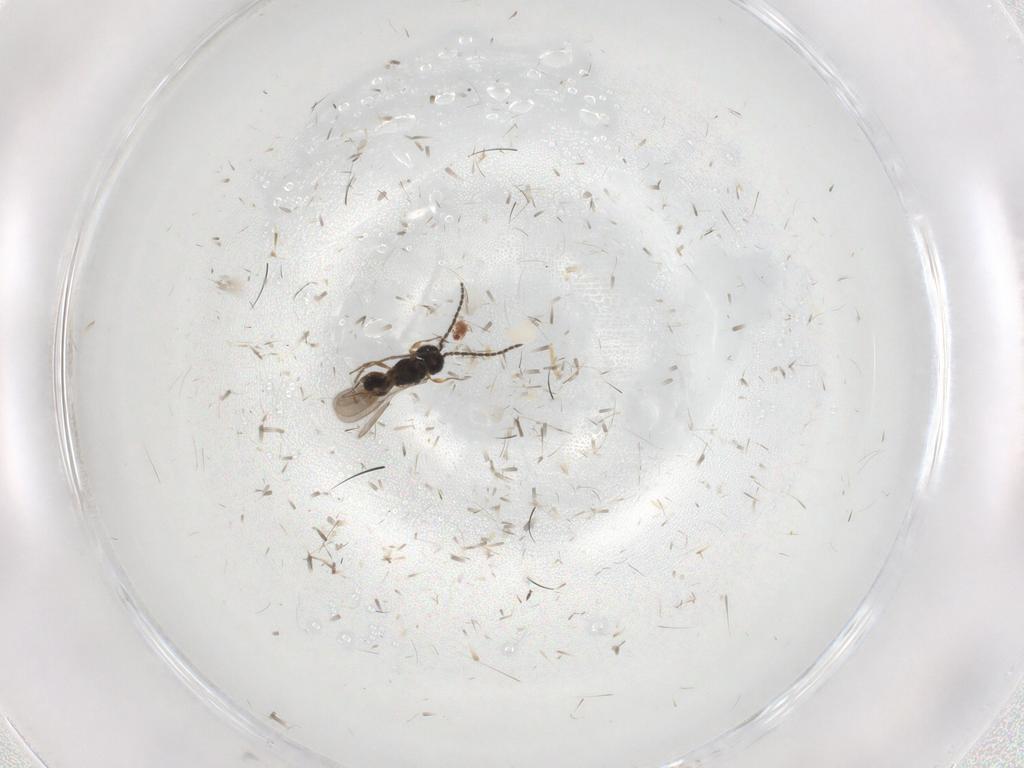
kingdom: Animalia
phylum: Arthropoda
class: Insecta
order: Hymenoptera
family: Scelionidae
